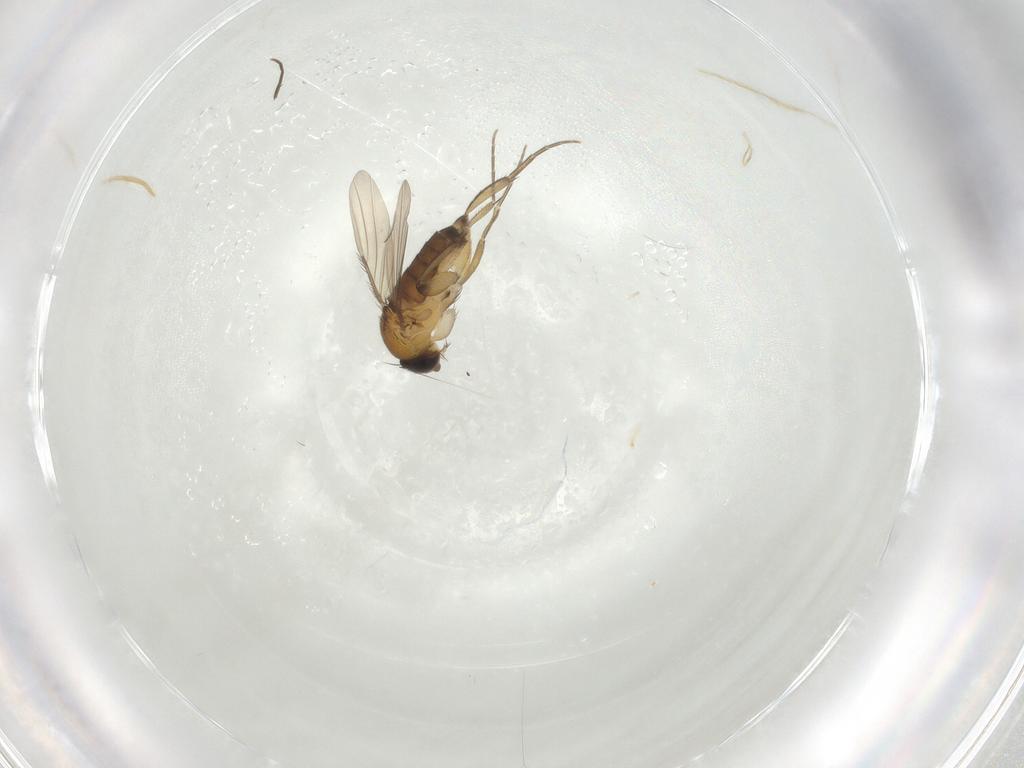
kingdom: Animalia
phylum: Arthropoda
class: Insecta
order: Diptera
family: Phoridae
